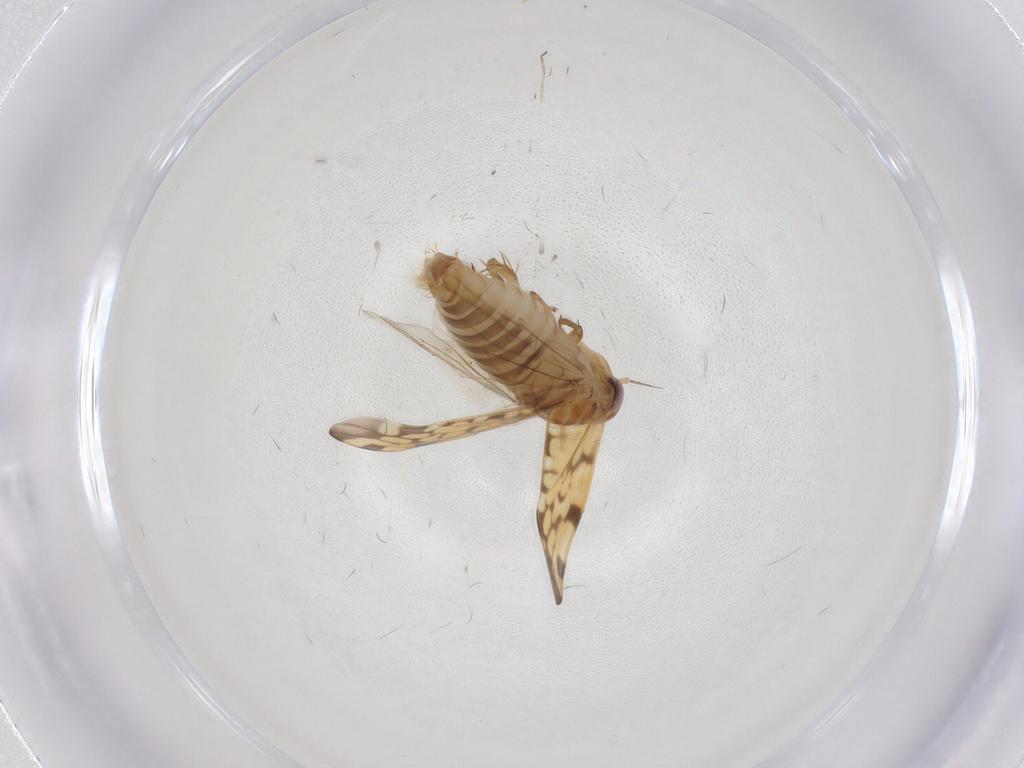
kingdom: Animalia
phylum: Arthropoda
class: Insecta
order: Hemiptera
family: Cicadellidae
